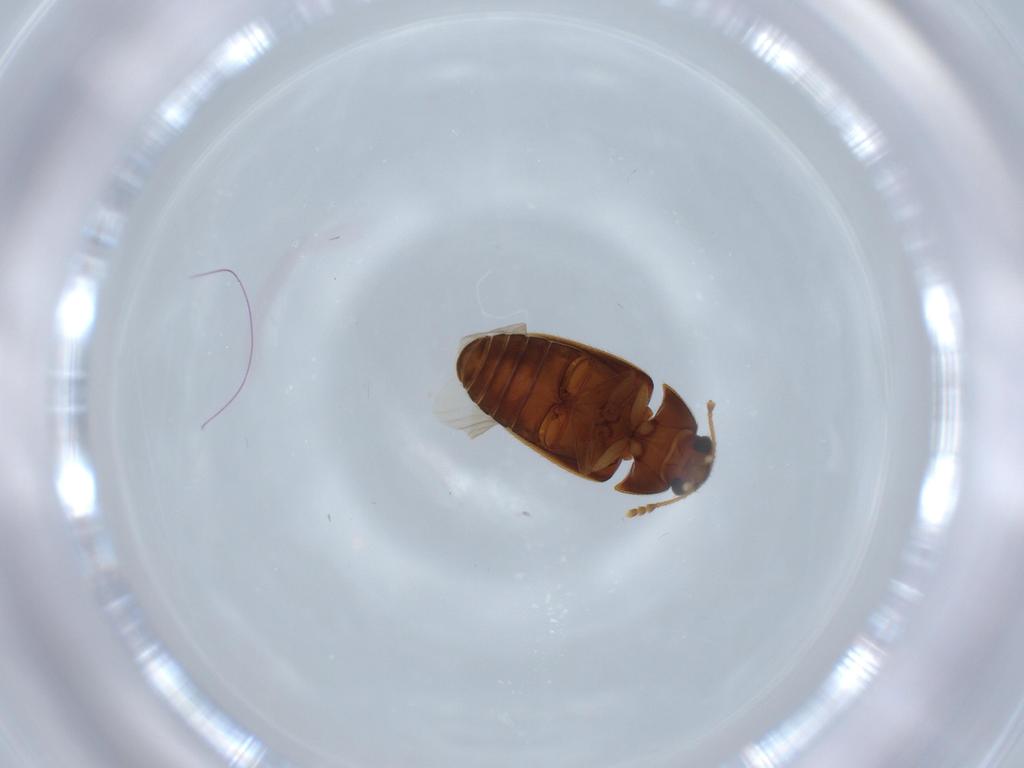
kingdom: Animalia
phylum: Arthropoda
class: Insecta
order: Coleoptera
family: Mycetophagidae
